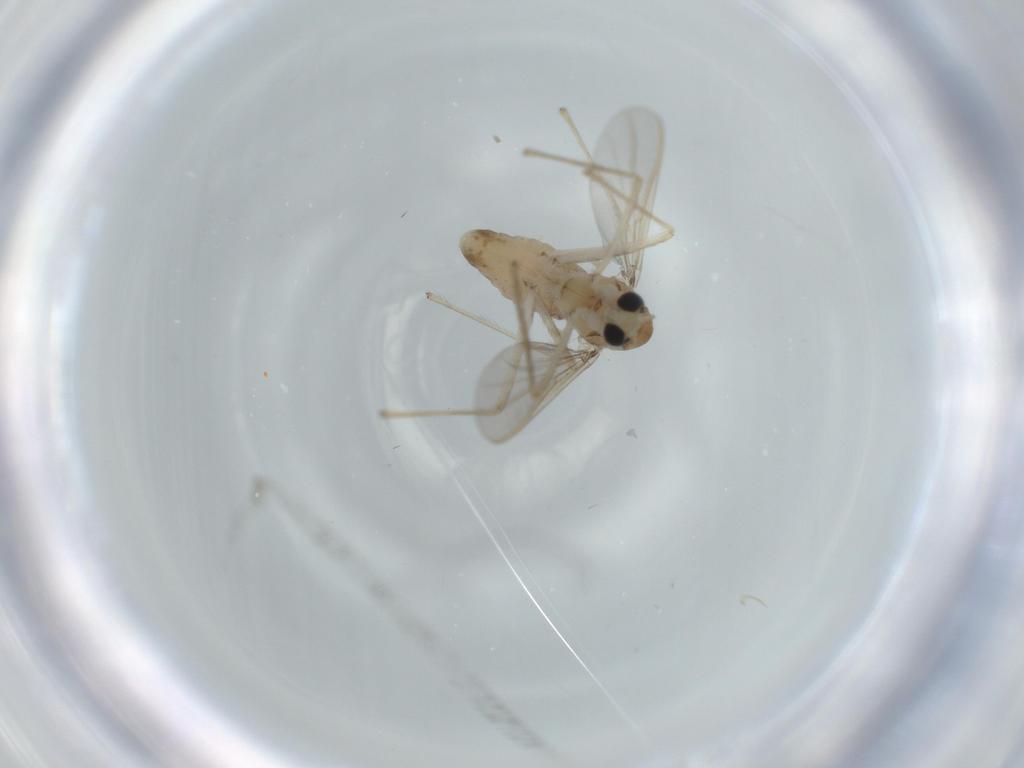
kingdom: Animalia
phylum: Arthropoda
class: Insecta
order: Diptera
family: Chironomidae
